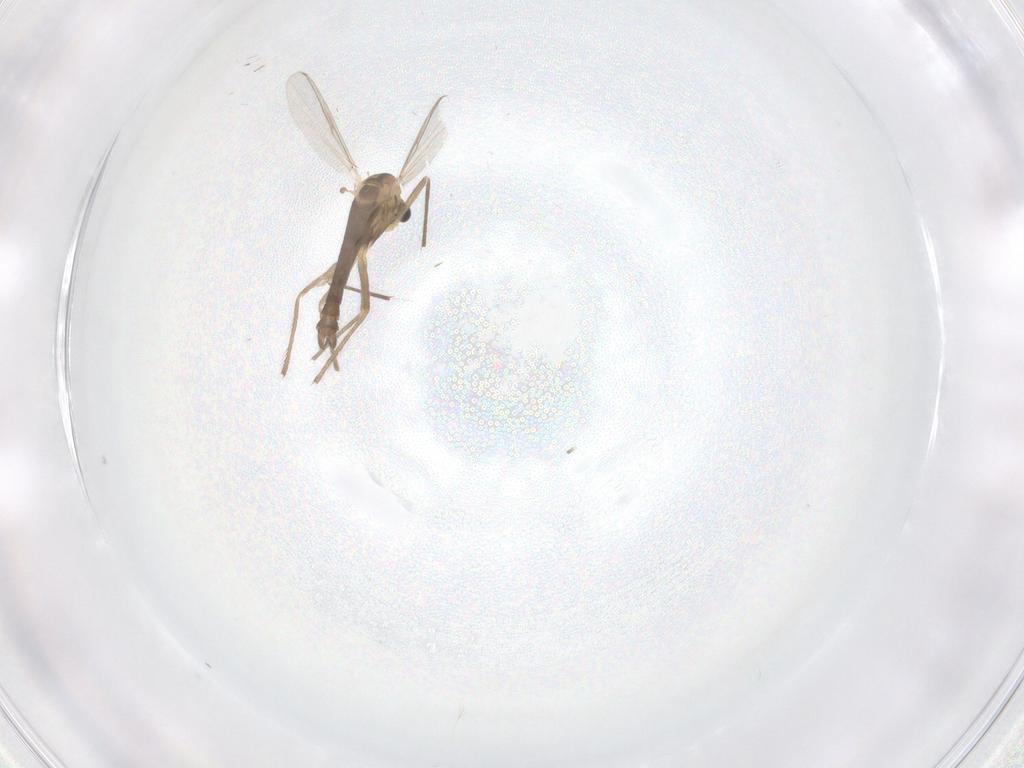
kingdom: Animalia
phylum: Arthropoda
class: Insecta
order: Diptera
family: Chironomidae
